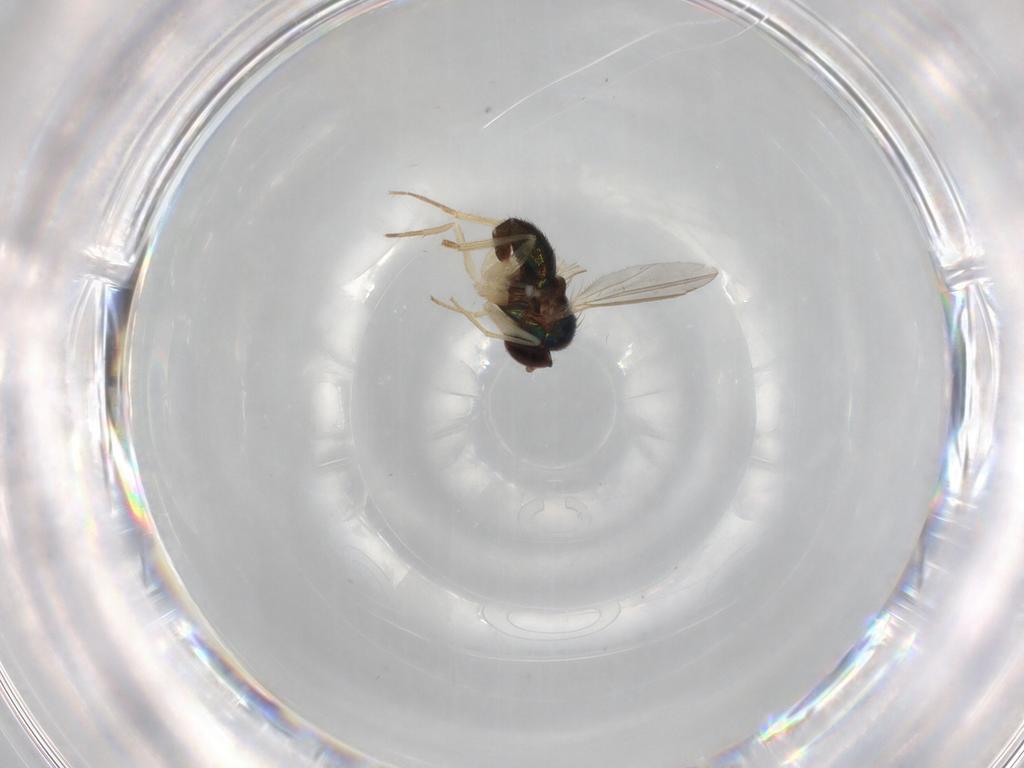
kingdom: Animalia
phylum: Arthropoda
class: Insecta
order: Diptera
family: Dolichopodidae
